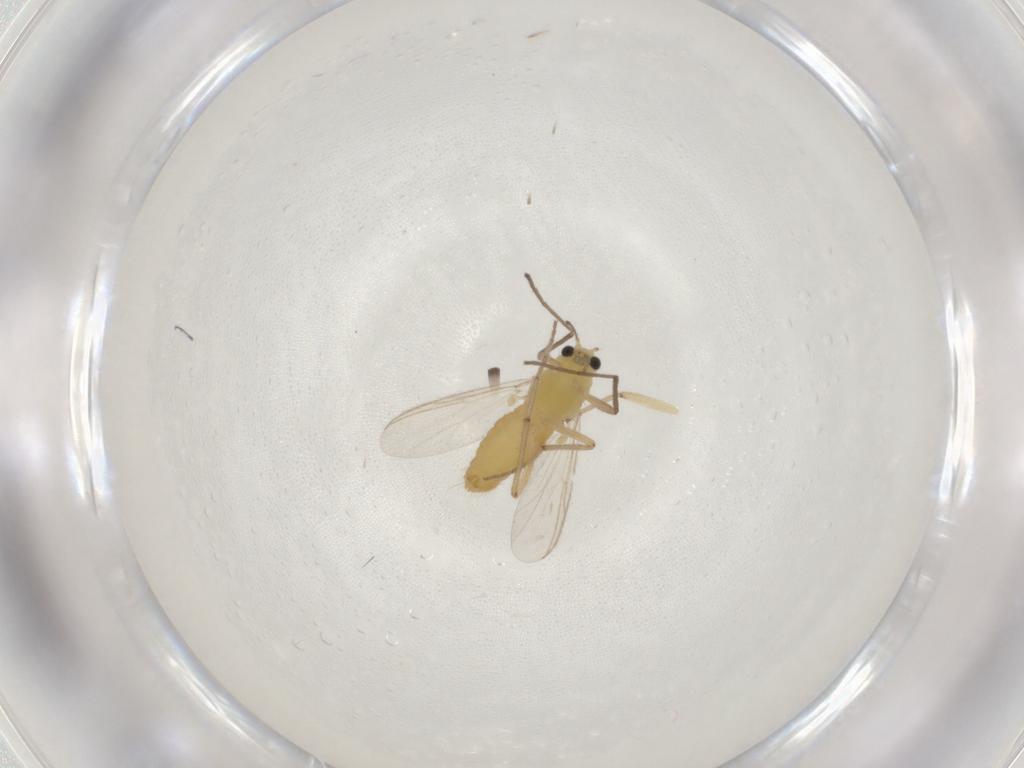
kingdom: Animalia
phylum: Arthropoda
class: Insecta
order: Diptera
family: Chironomidae
